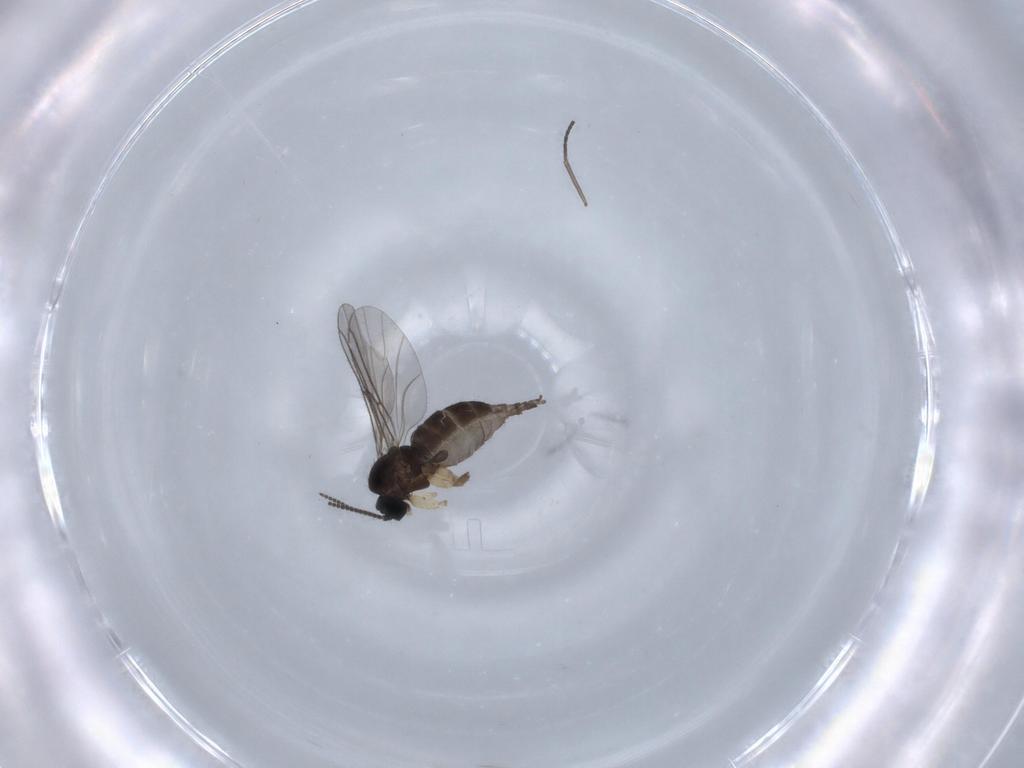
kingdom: Animalia
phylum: Arthropoda
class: Insecta
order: Diptera
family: Sciaridae
